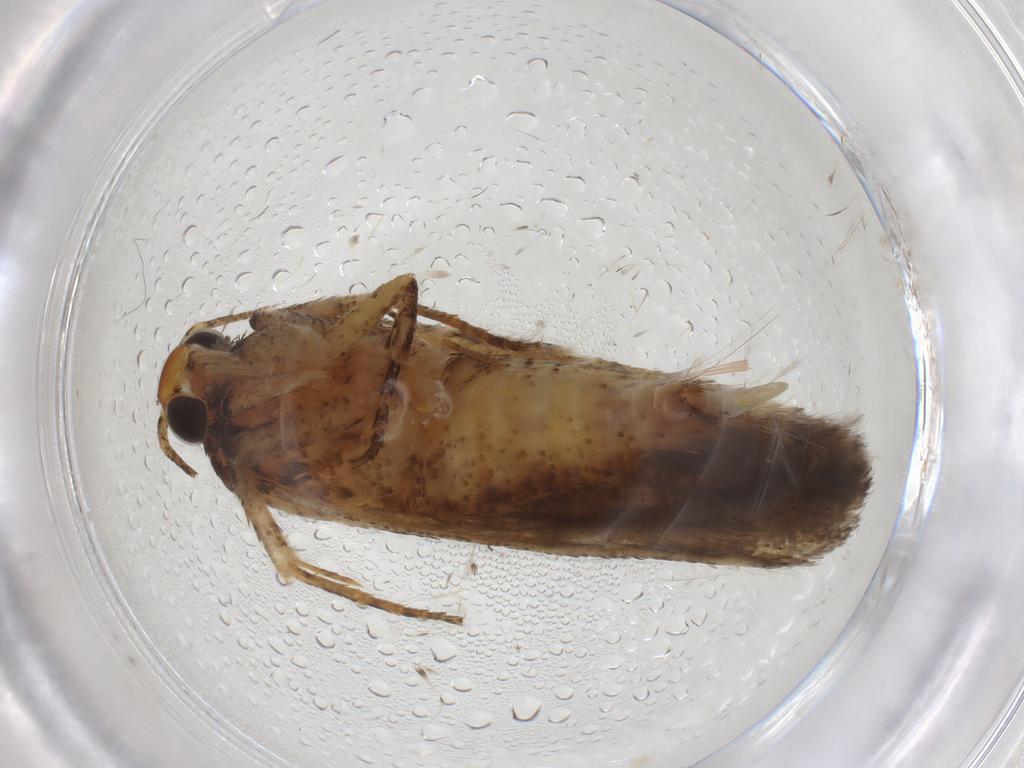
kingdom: Animalia
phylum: Arthropoda
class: Insecta
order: Lepidoptera
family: Gelechiidae
